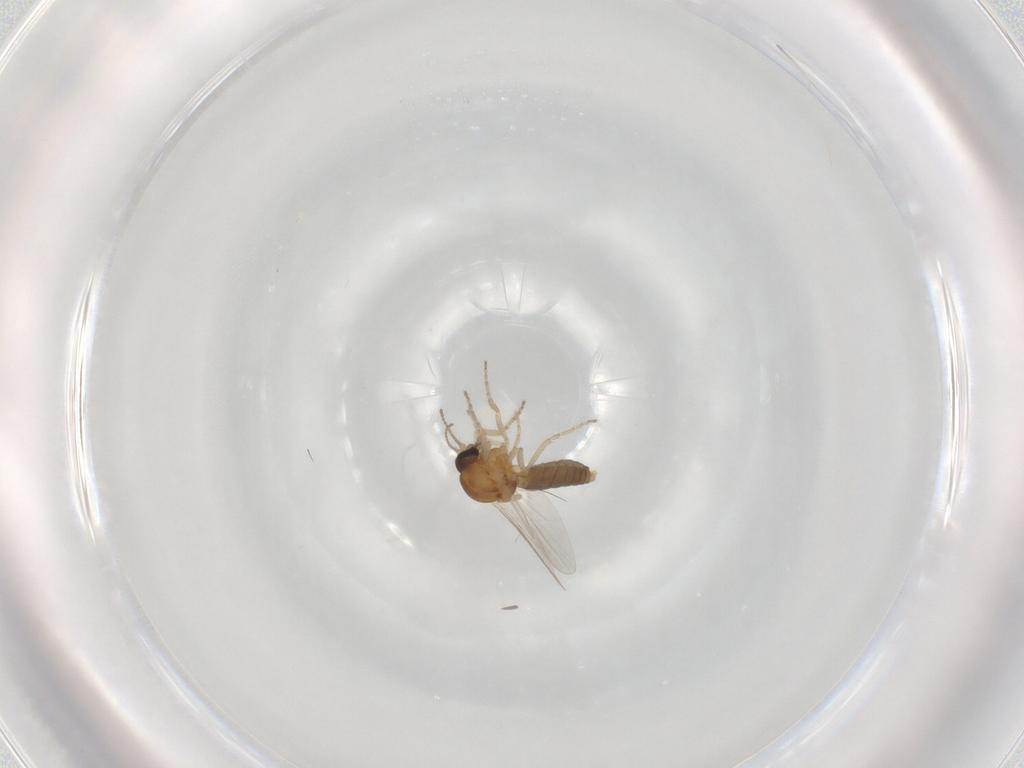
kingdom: Animalia
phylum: Arthropoda
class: Insecta
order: Diptera
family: Ceratopogonidae
